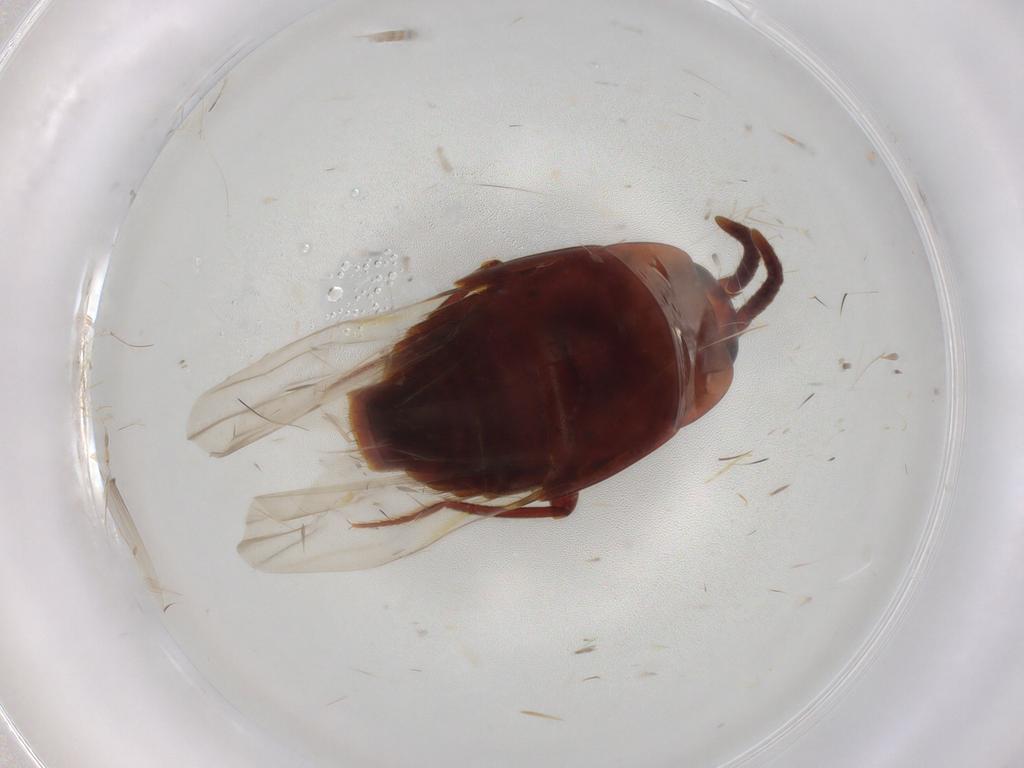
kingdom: Animalia
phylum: Arthropoda
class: Insecta
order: Coleoptera
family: Staphylinidae
